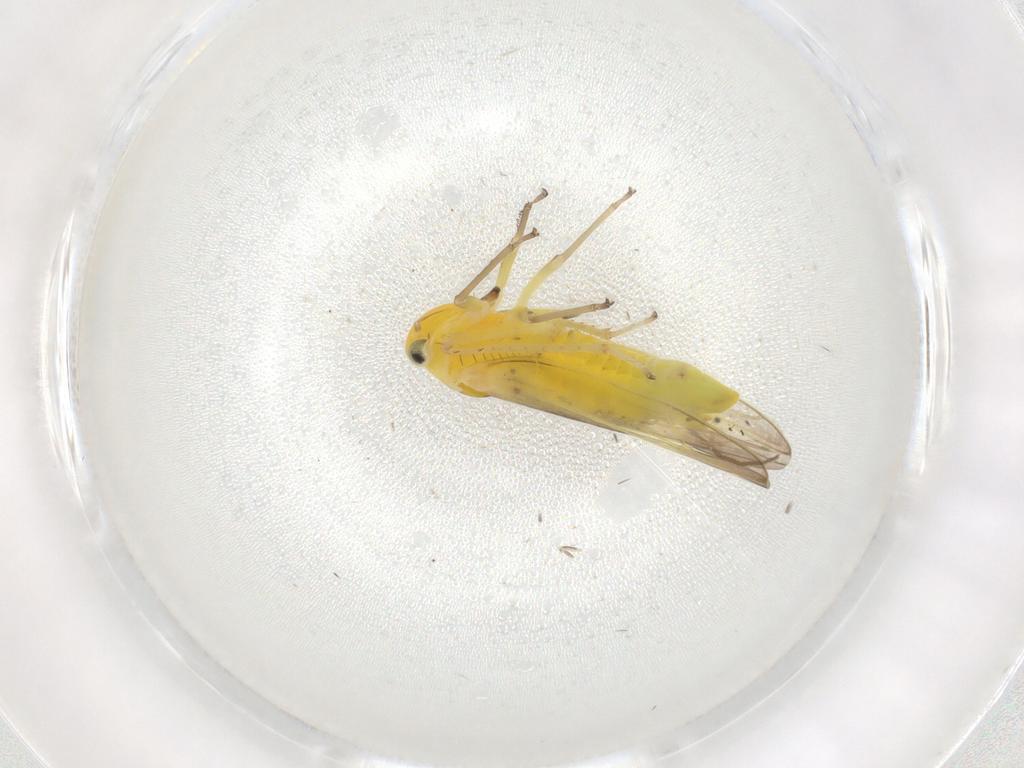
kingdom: Animalia
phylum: Arthropoda
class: Insecta
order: Hemiptera
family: Cicadellidae
